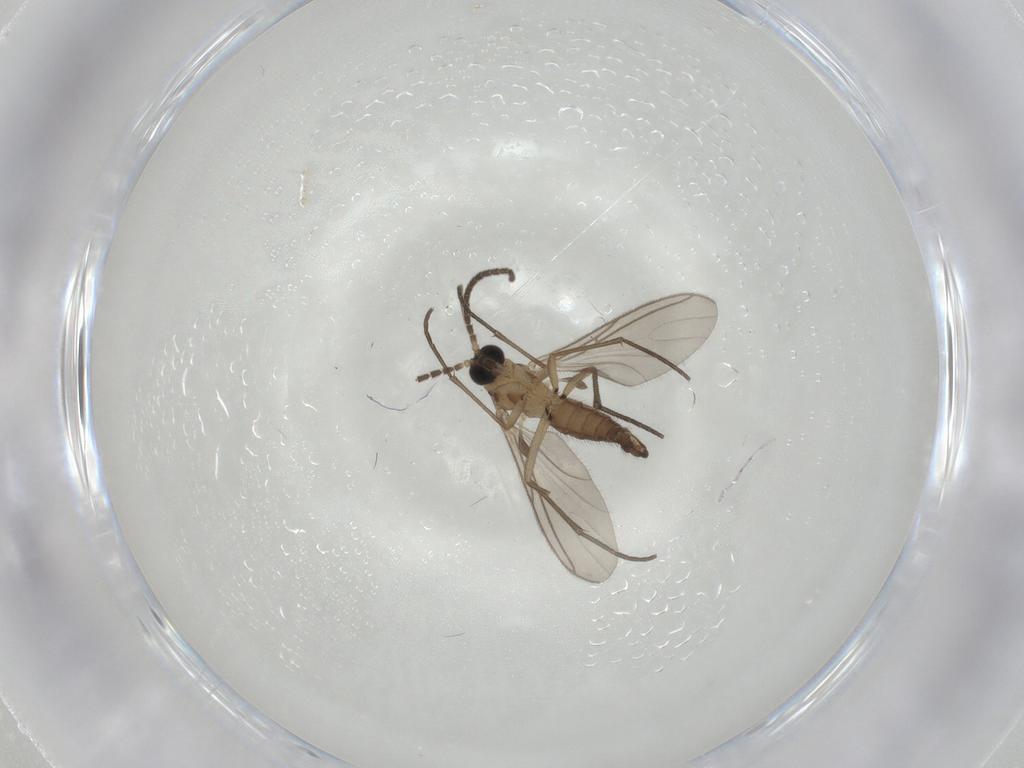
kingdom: Animalia
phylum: Arthropoda
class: Insecta
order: Diptera
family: Sciaridae
